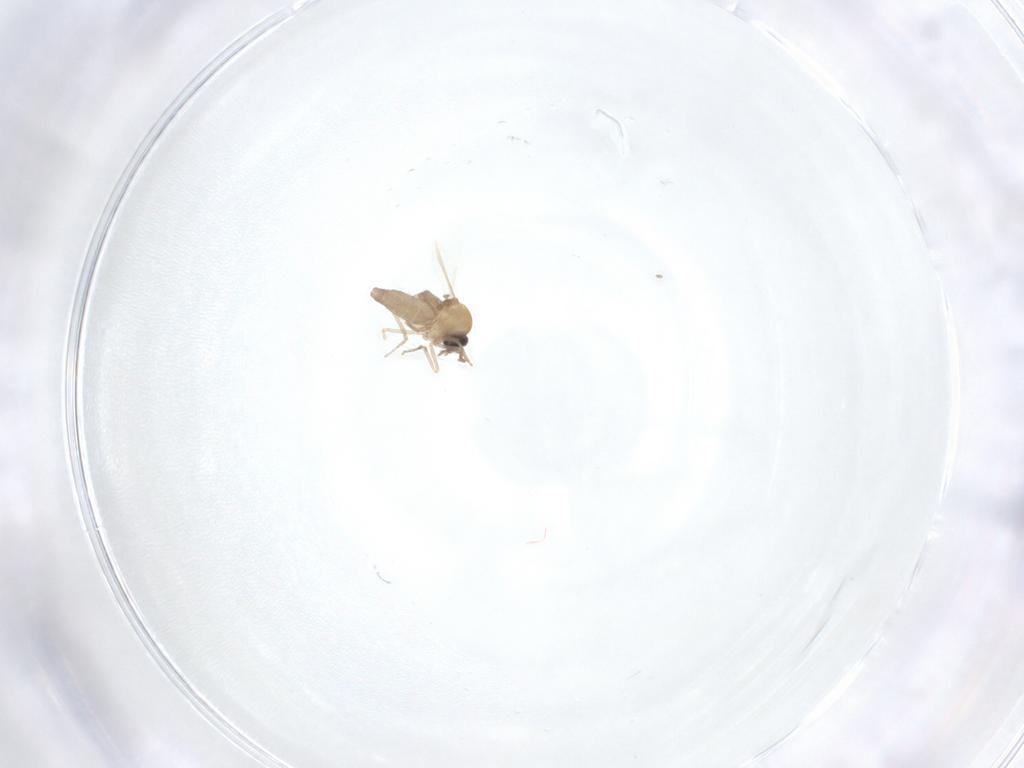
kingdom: Animalia
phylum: Arthropoda
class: Insecta
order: Diptera
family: Ceratopogonidae
